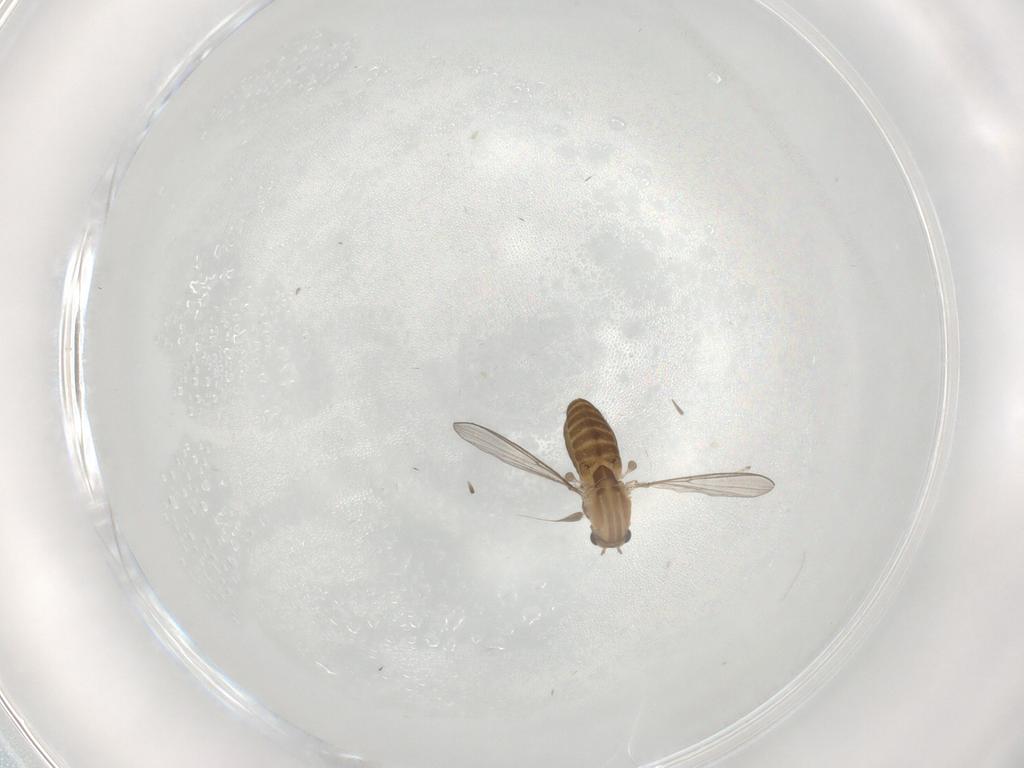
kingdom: Animalia
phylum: Arthropoda
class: Insecta
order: Diptera
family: Chironomidae
